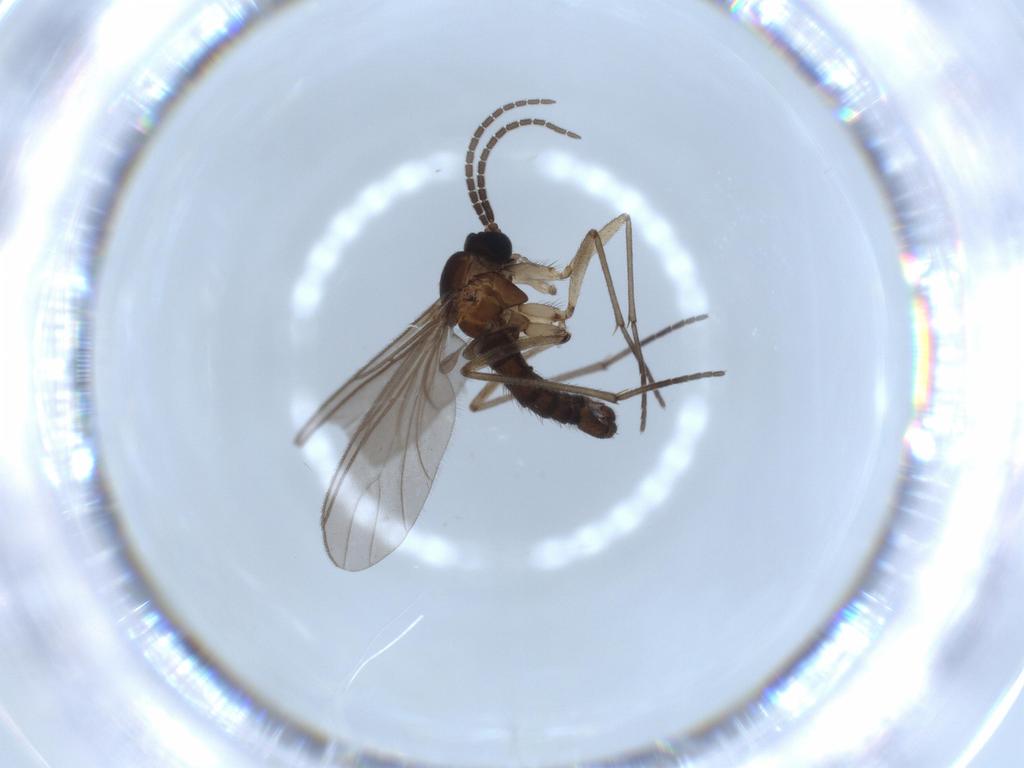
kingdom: Animalia
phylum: Arthropoda
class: Insecta
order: Diptera
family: Sciaridae
